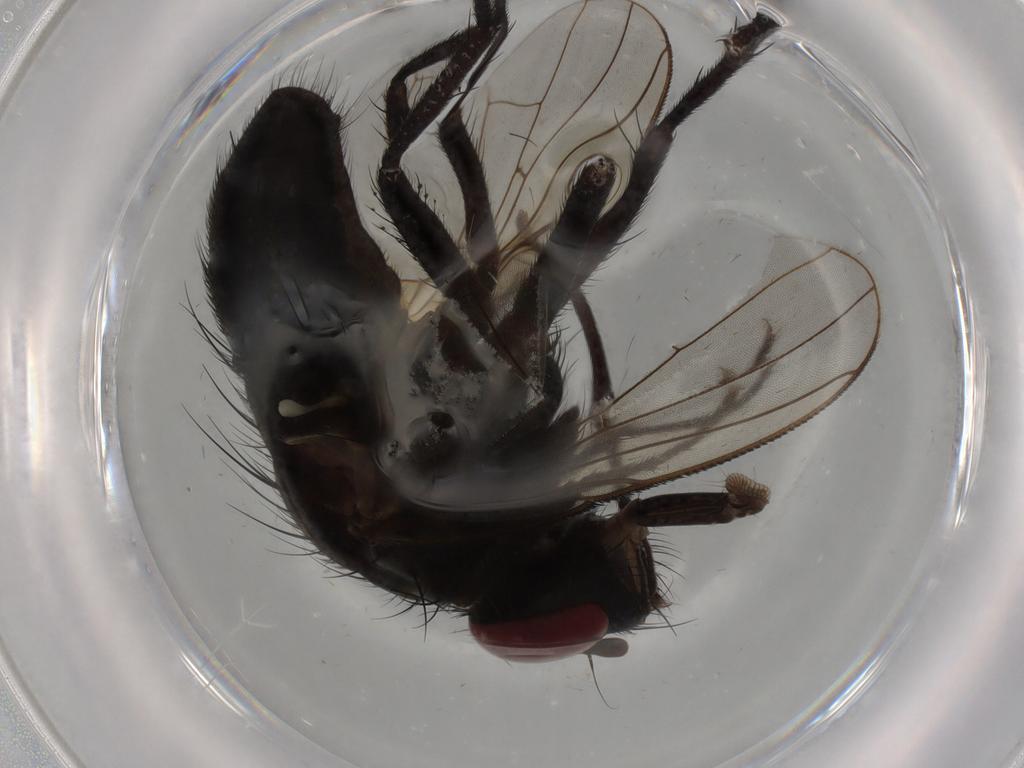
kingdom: Animalia
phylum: Arthropoda
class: Insecta
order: Diptera
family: Muscidae
